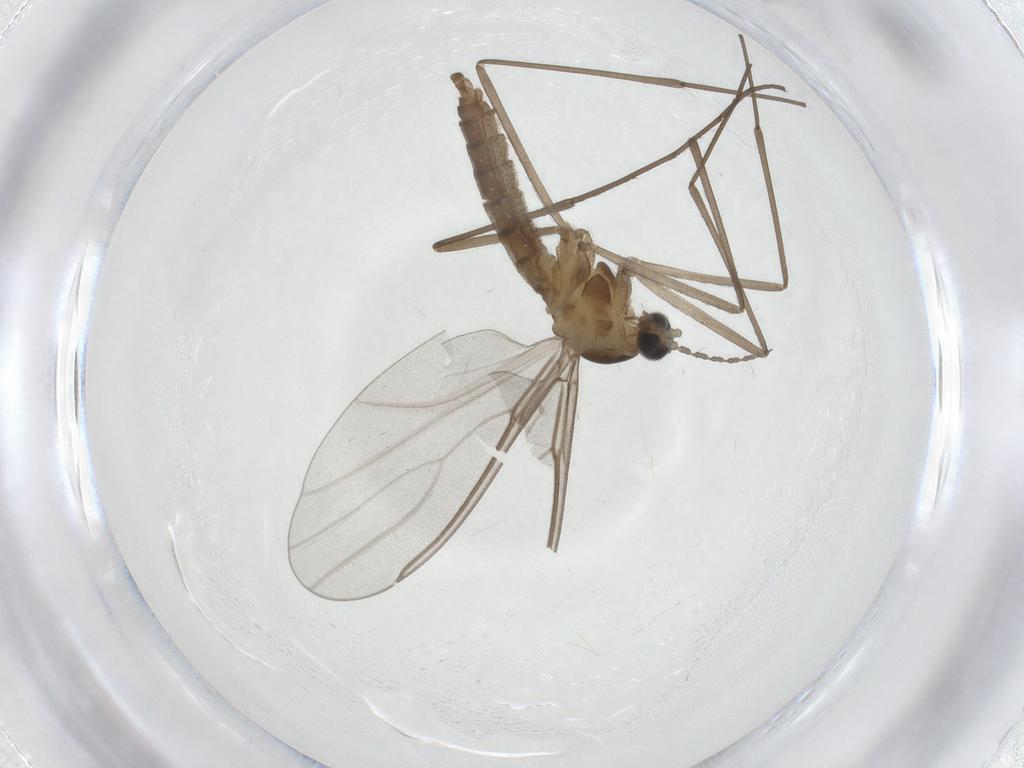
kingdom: Animalia
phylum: Arthropoda
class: Insecta
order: Diptera
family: Cecidomyiidae
